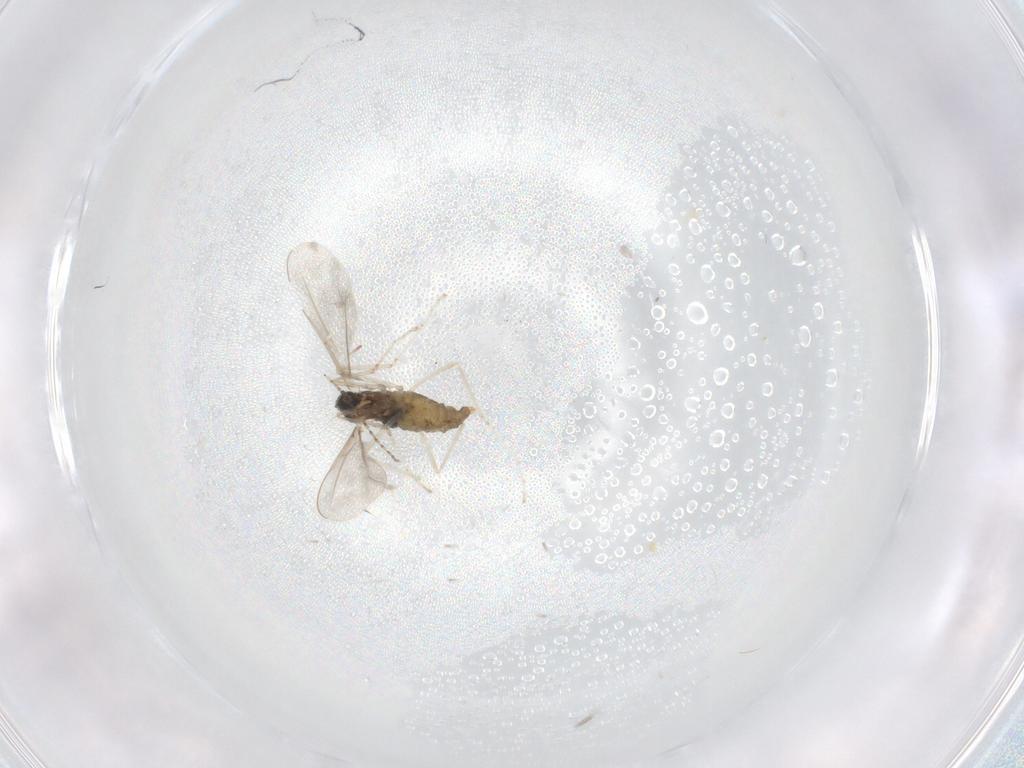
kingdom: Animalia
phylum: Arthropoda
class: Insecta
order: Diptera
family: Cecidomyiidae
